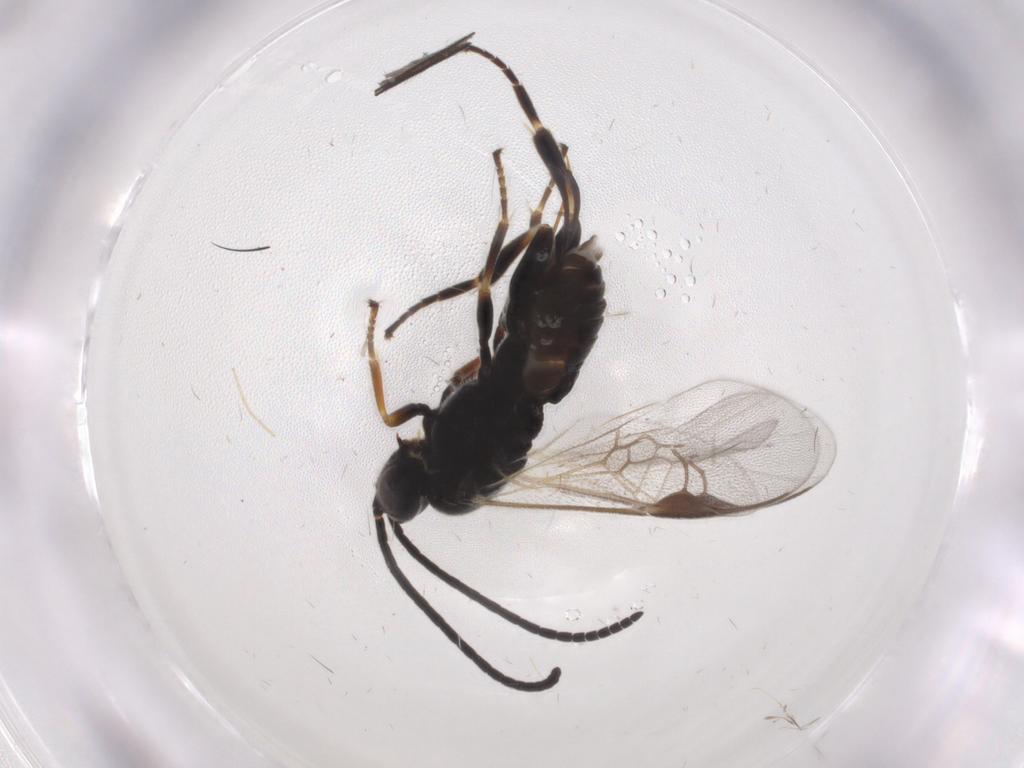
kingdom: Animalia
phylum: Arthropoda
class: Insecta
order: Hymenoptera
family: Braconidae
